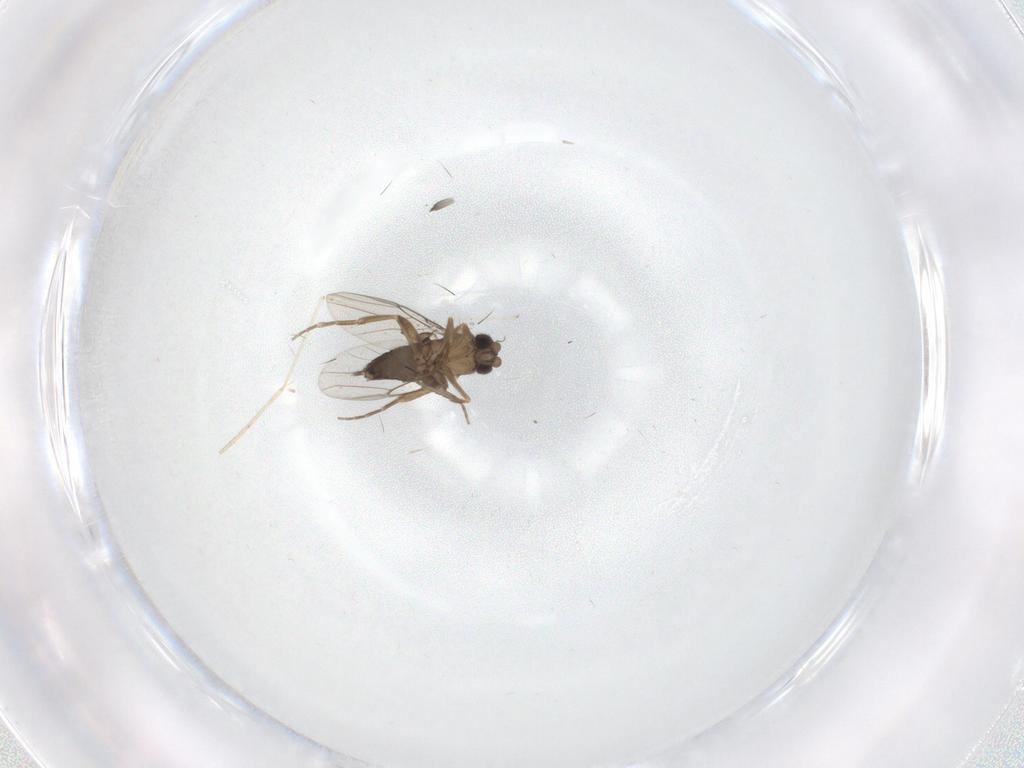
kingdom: Animalia
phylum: Arthropoda
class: Insecta
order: Diptera
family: Phoridae
